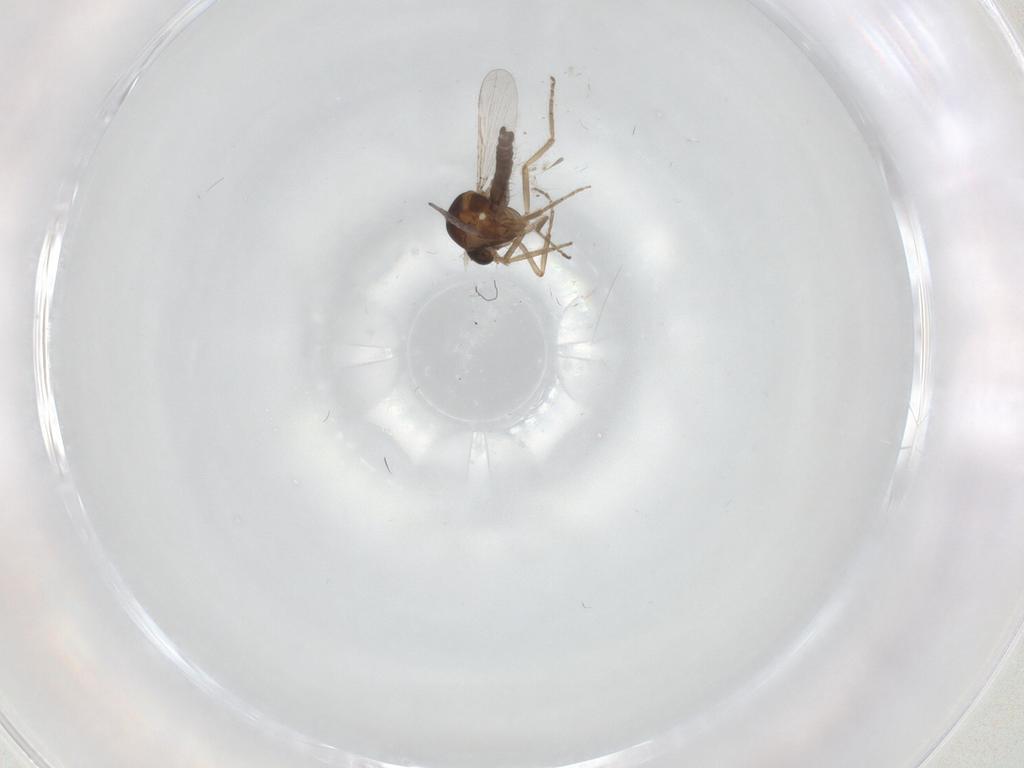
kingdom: Animalia
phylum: Arthropoda
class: Insecta
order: Diptera
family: Ceratopogonidae
